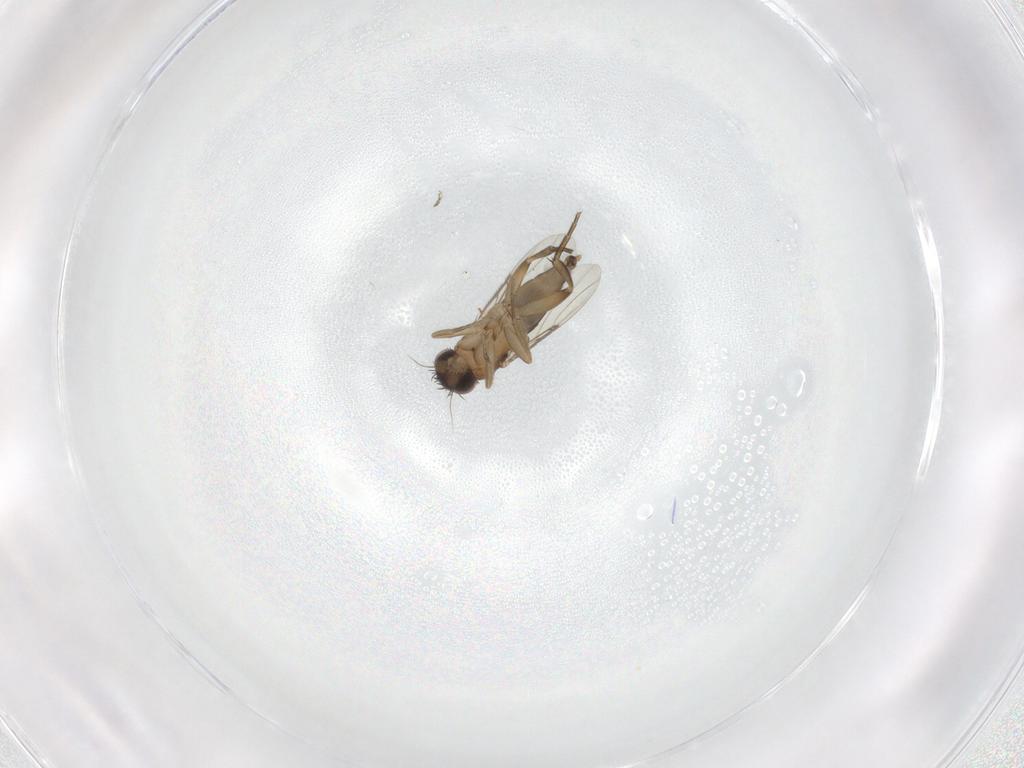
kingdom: Animalia
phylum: Arthropoda
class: Insecta
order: Diptera
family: Phoridae
